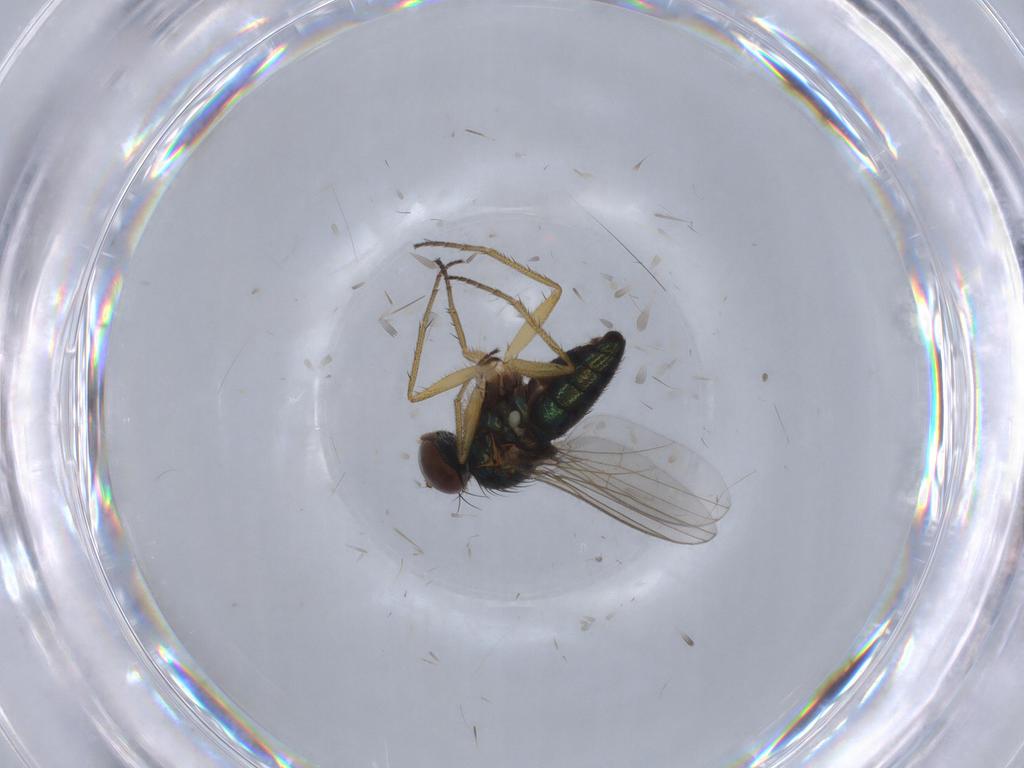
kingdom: Animalia
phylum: Arthropoda
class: Insecta
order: Diptera
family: Dolichopodidae
